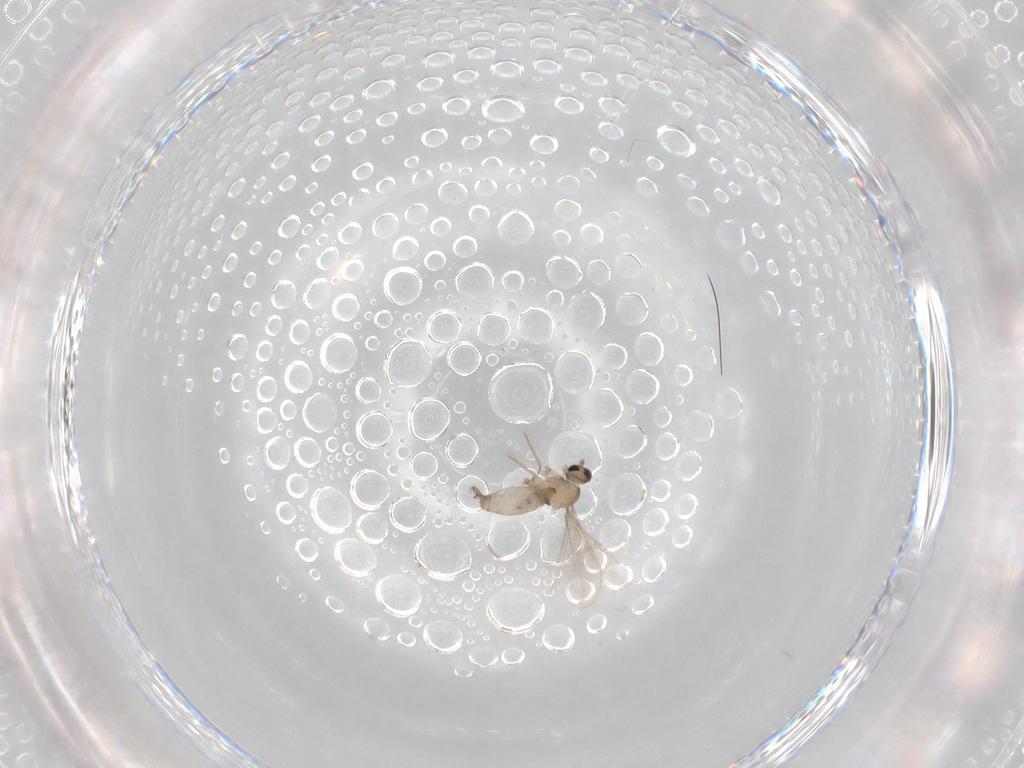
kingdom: Animalia
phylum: Arthropoda
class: Insecta
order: Diptera
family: Cecidomyiidae
